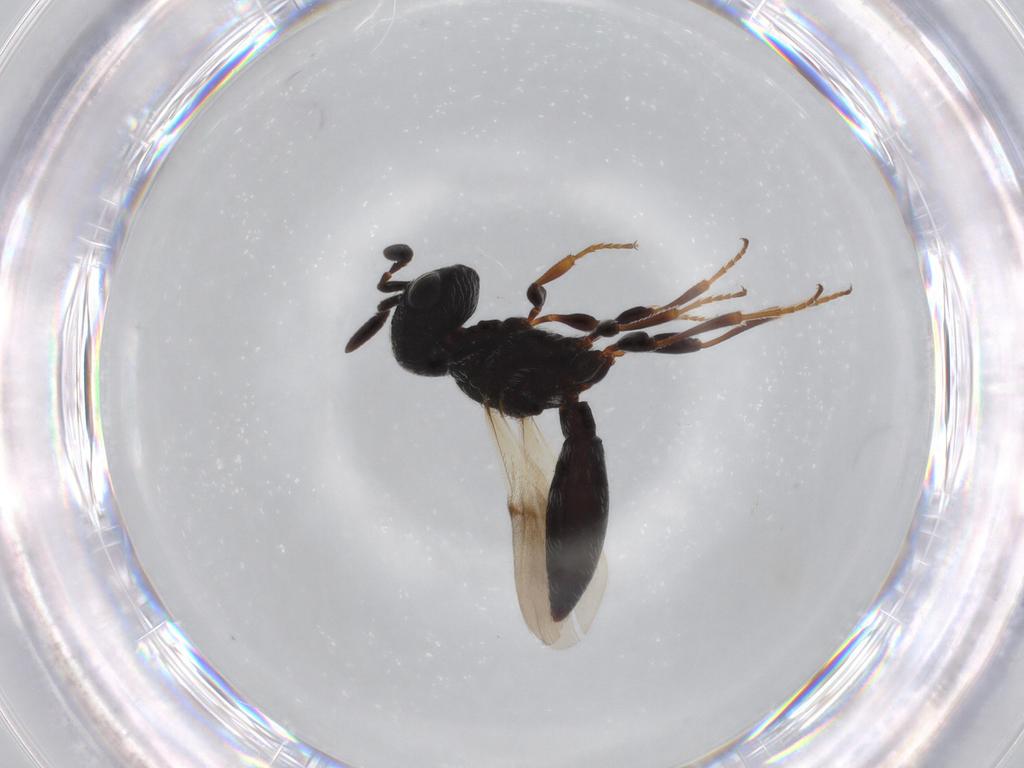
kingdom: Animalia
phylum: Arthropoda
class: Insecta
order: Hymenoptera
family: Scelionidae
